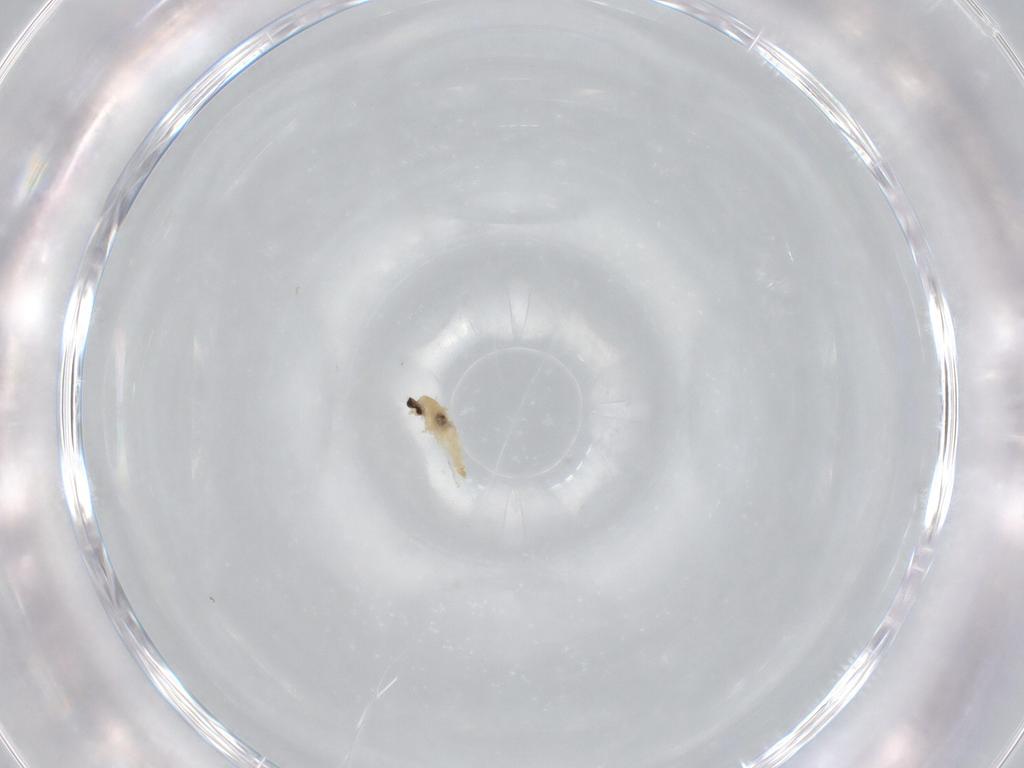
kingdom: Animalia
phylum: Arthropoda
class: Insecta
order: Diptera
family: Cecidomyiidae
